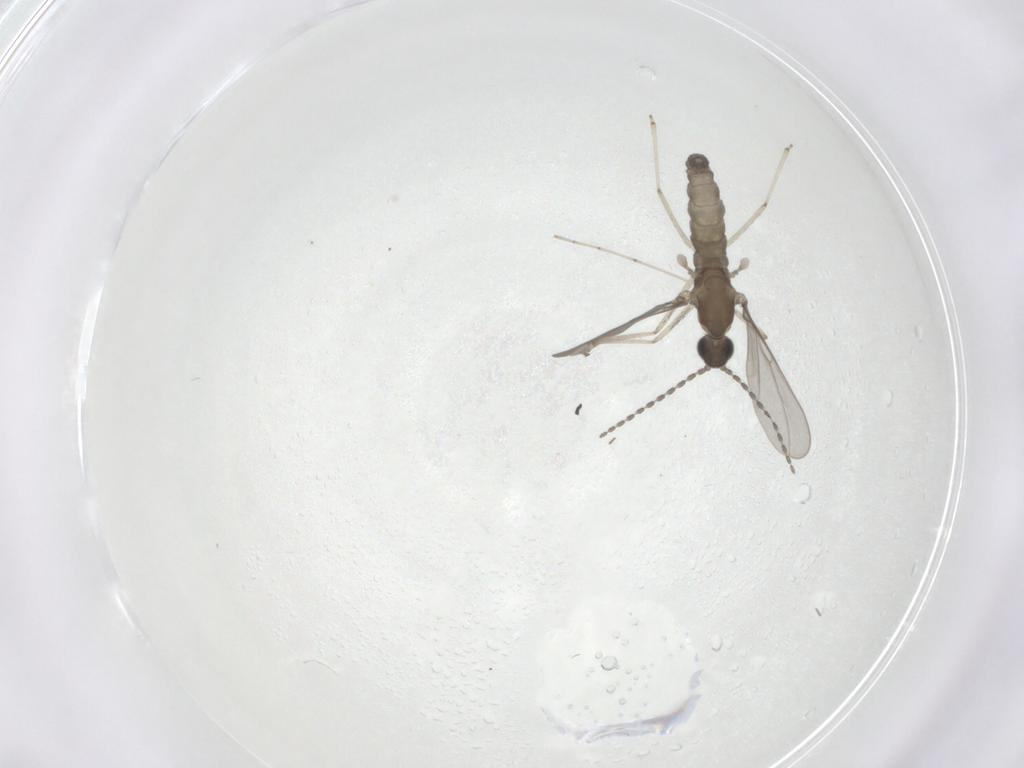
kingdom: Animalia
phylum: Arthropoda
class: Insecta
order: Diptera
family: Cecidomyiidae
